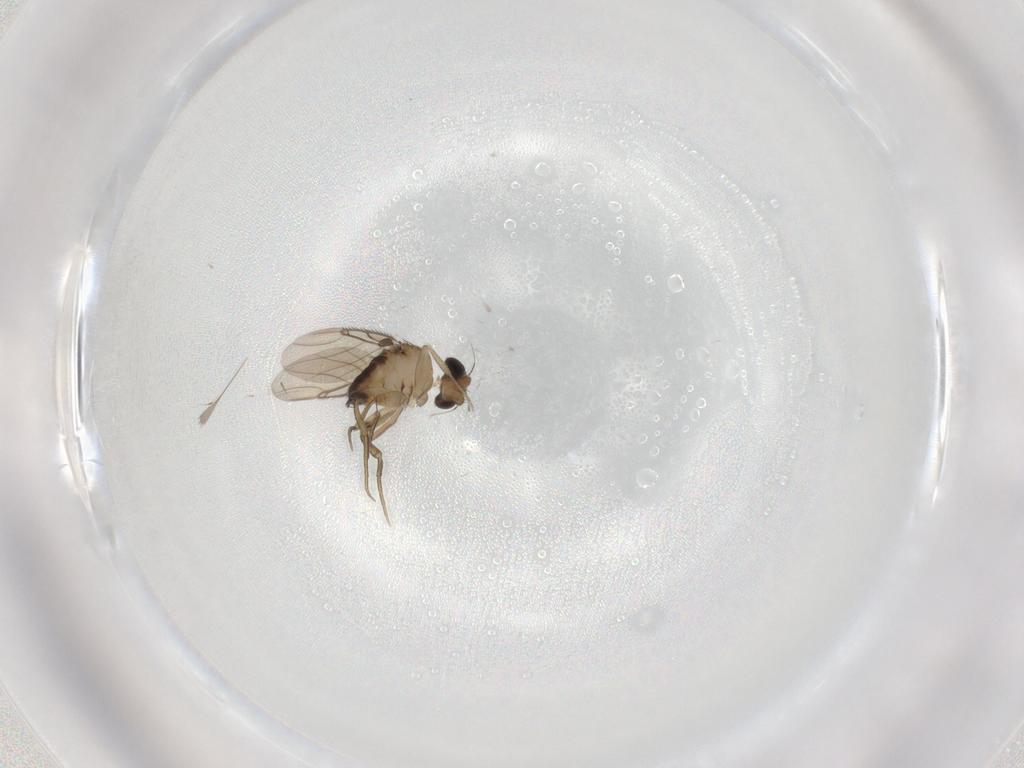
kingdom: Animalia
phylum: Arthropoda
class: Insecta
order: Diptera
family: Phoridae
